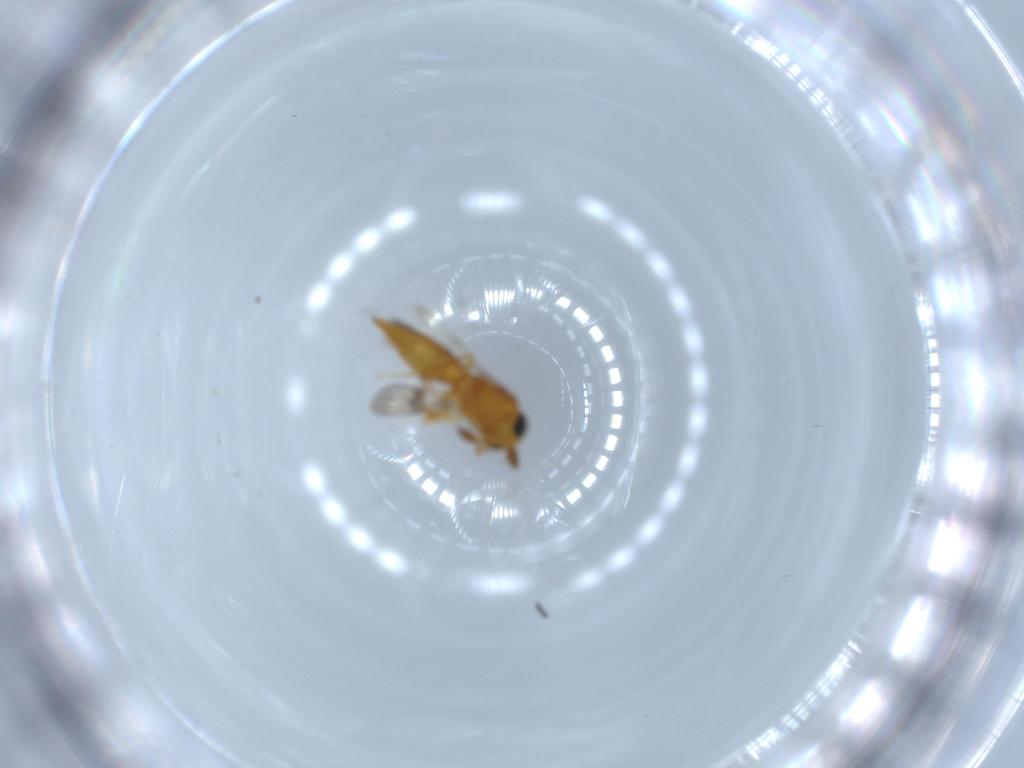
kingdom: Animalia
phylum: Arthropoda
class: Insecta
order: Hymenoptera
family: Scelionidae
